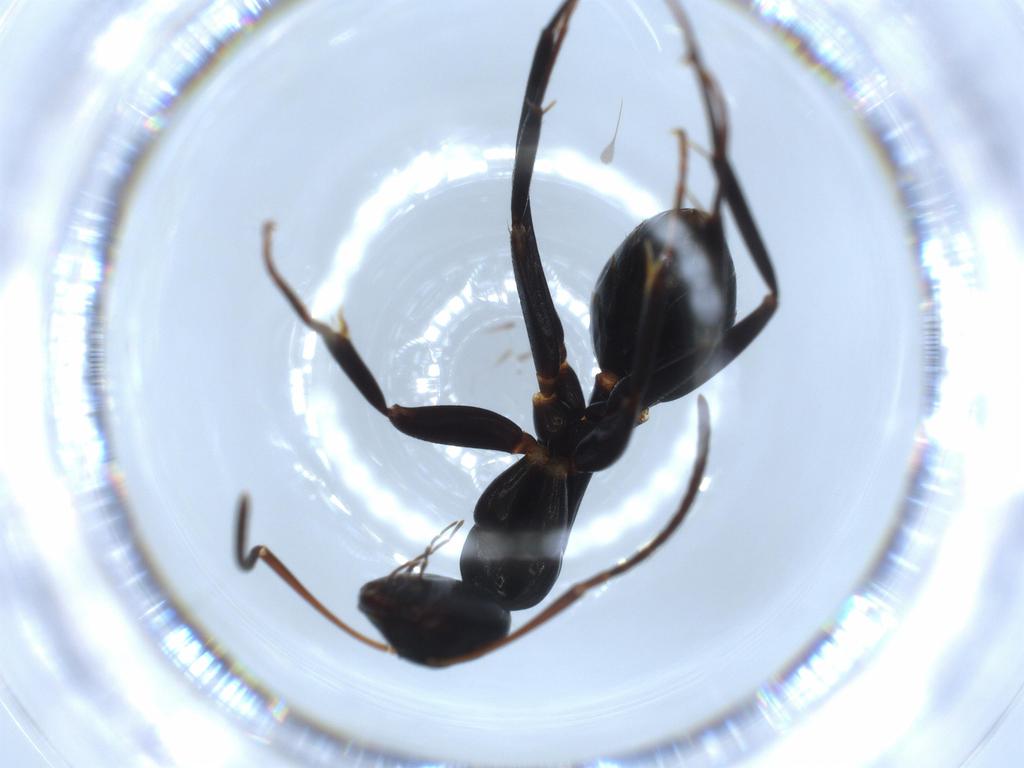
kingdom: Animalia
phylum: Arthropoda
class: Insecta
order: Hymenoptera
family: Formicidae
